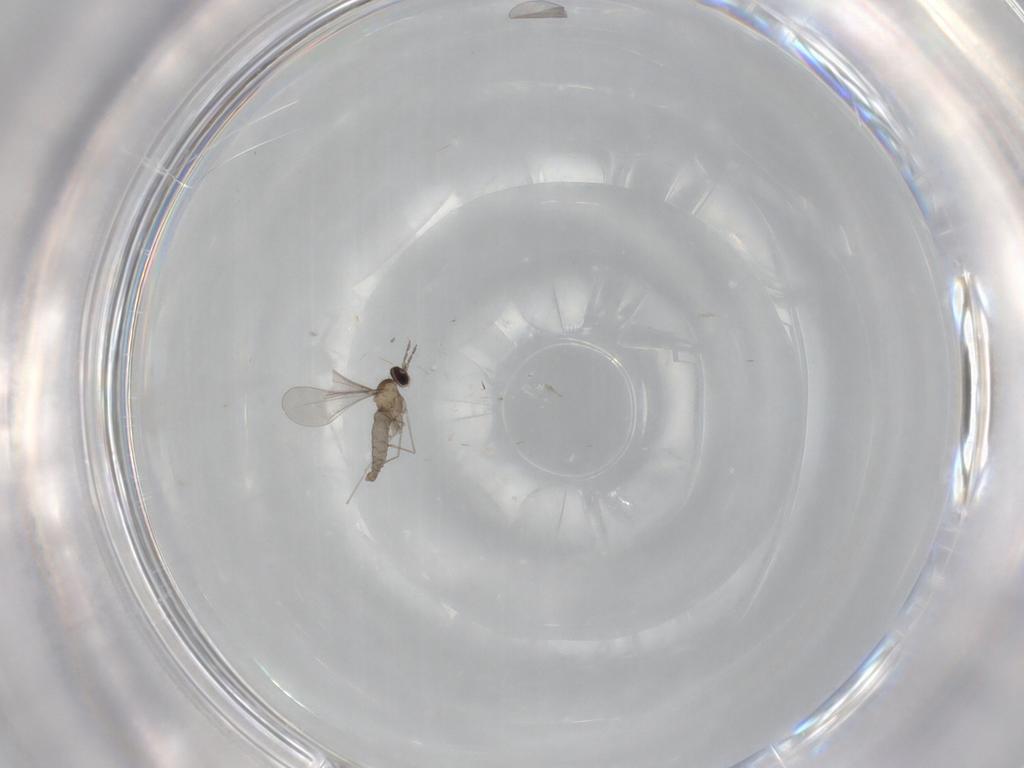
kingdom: Animalia
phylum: Arthropoda
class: Insecta
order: Diptera
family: Cecidomyiidae
